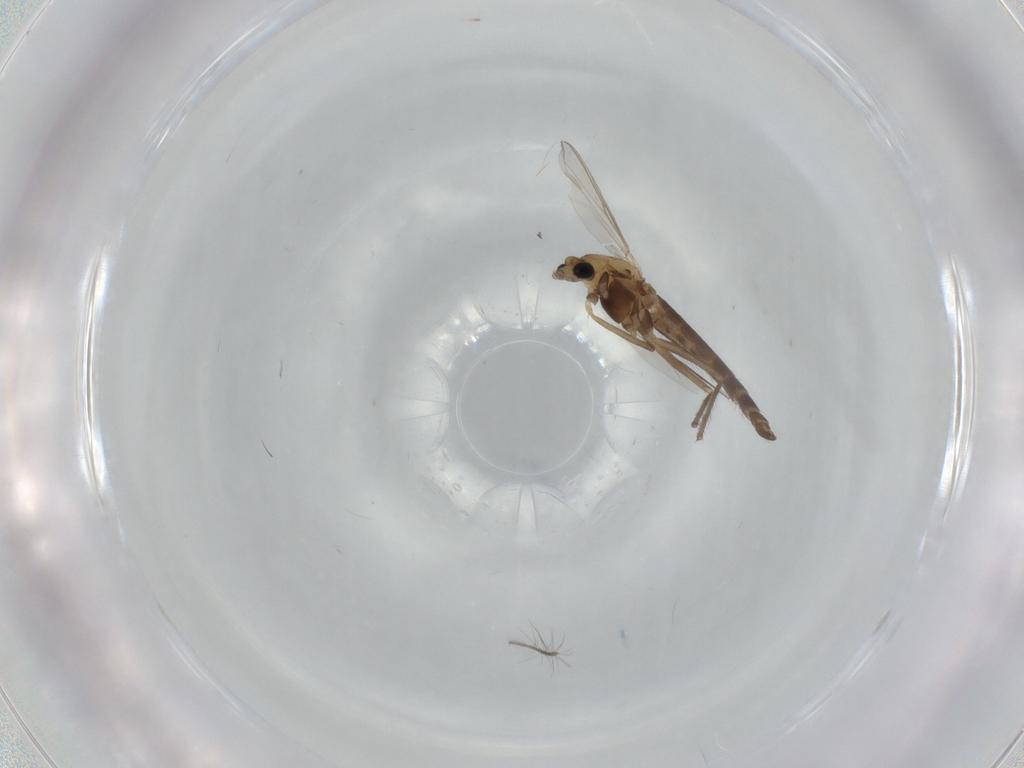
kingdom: Animalia
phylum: Arthropoda
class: Insecta
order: Diptera
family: Chironomidae
